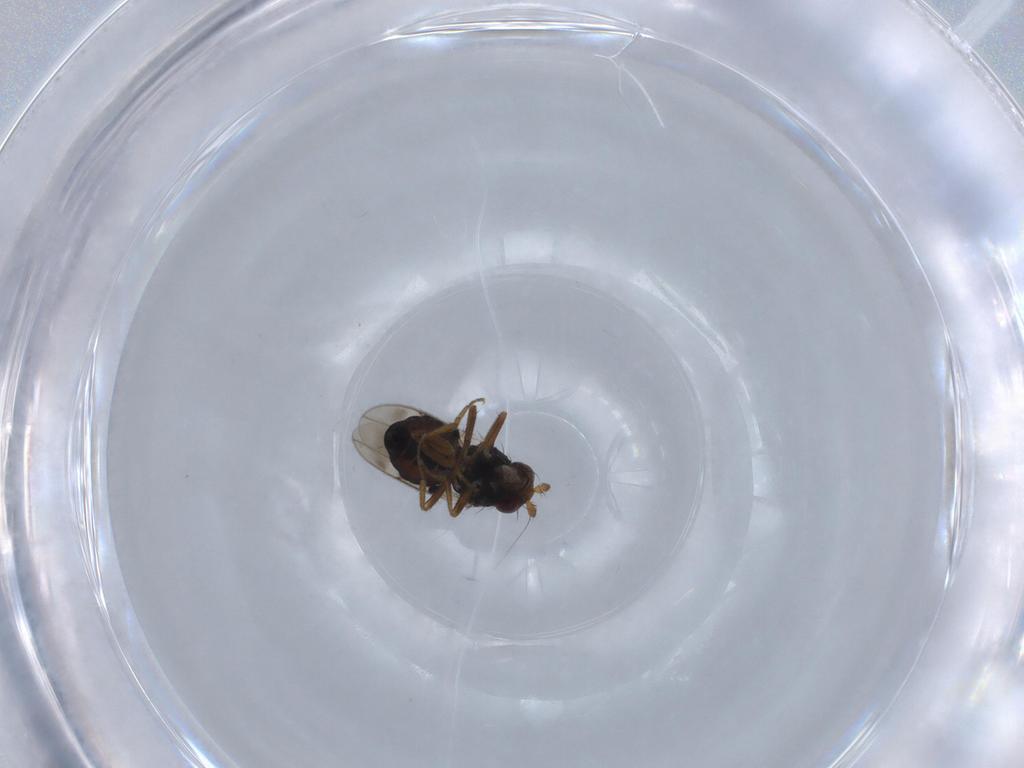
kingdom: Animalia
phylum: Arthropoda
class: Insecta
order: Diptera
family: Sphaeroceridae
